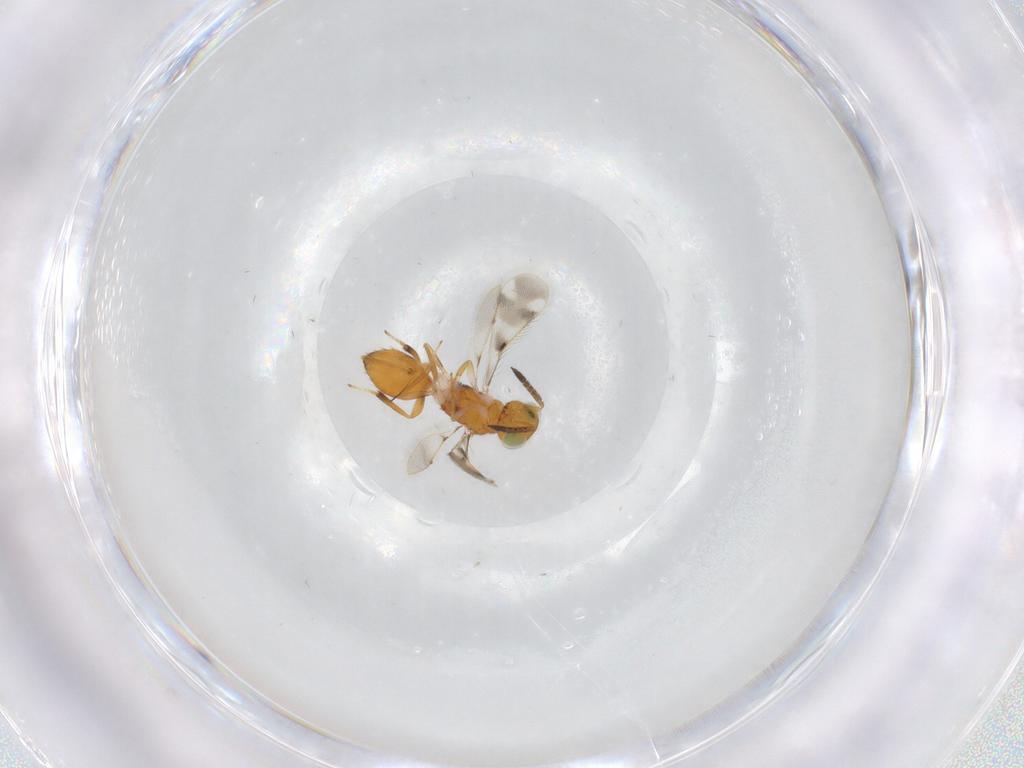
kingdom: Animalia
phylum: Arthropoda
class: Insecta
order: Hymenoptera
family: Pteromalidae
